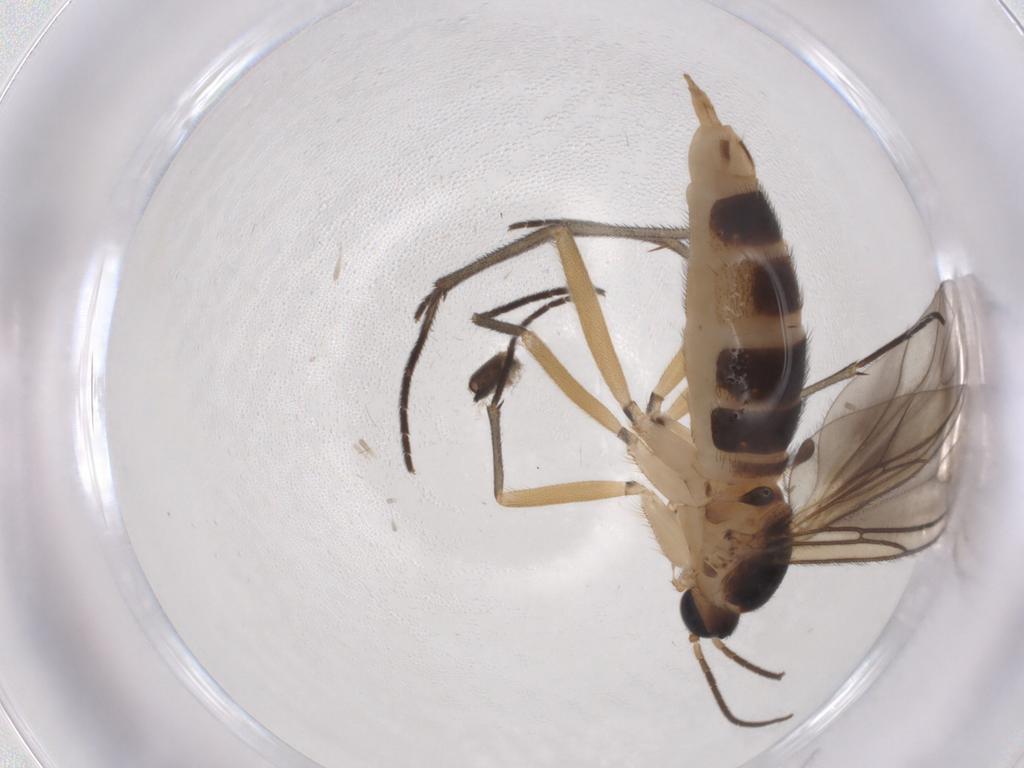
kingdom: Animalia
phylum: Arthropoda
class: Insecta
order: Diptera
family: Sciaridae
